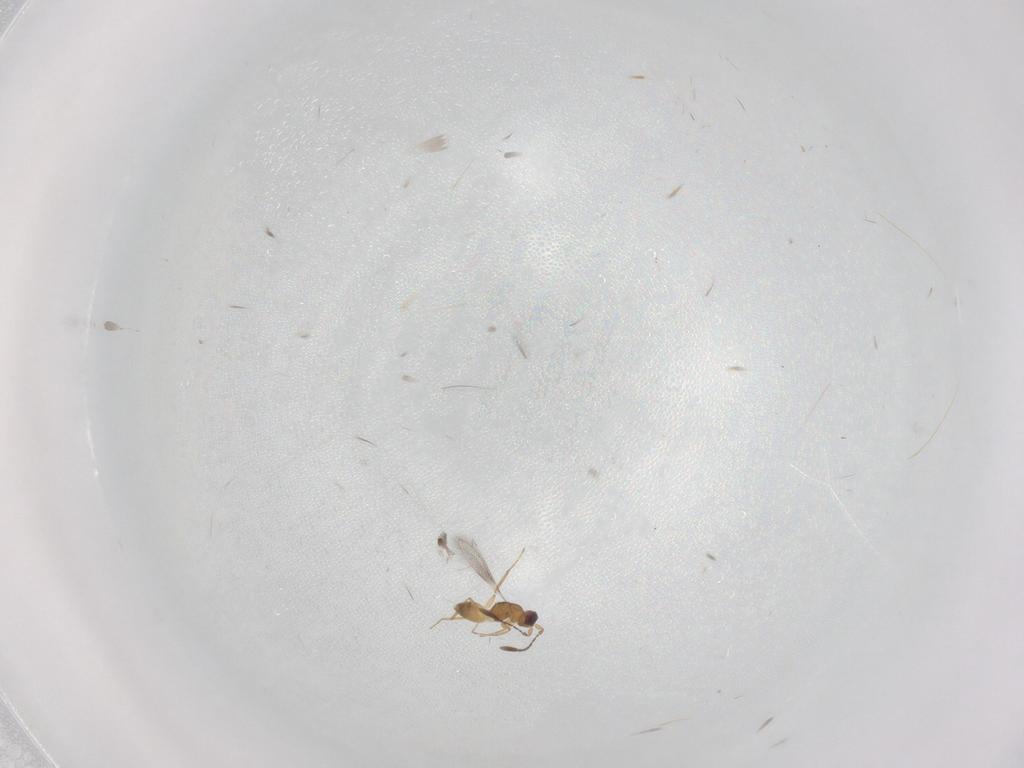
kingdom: Animalia
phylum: Arthropoda
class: Insecta
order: Hymenoptera
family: Mymaridae
